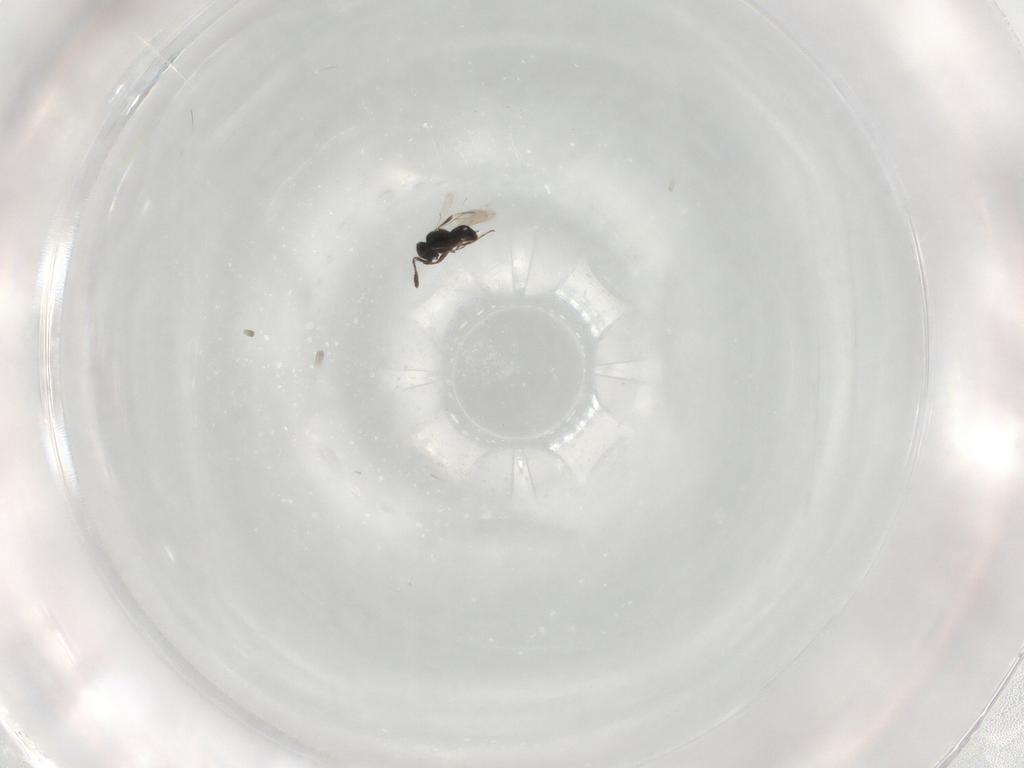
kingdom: Animalia
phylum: Arthropoda
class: Insecta
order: Hymenoptera
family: Scelionidae
